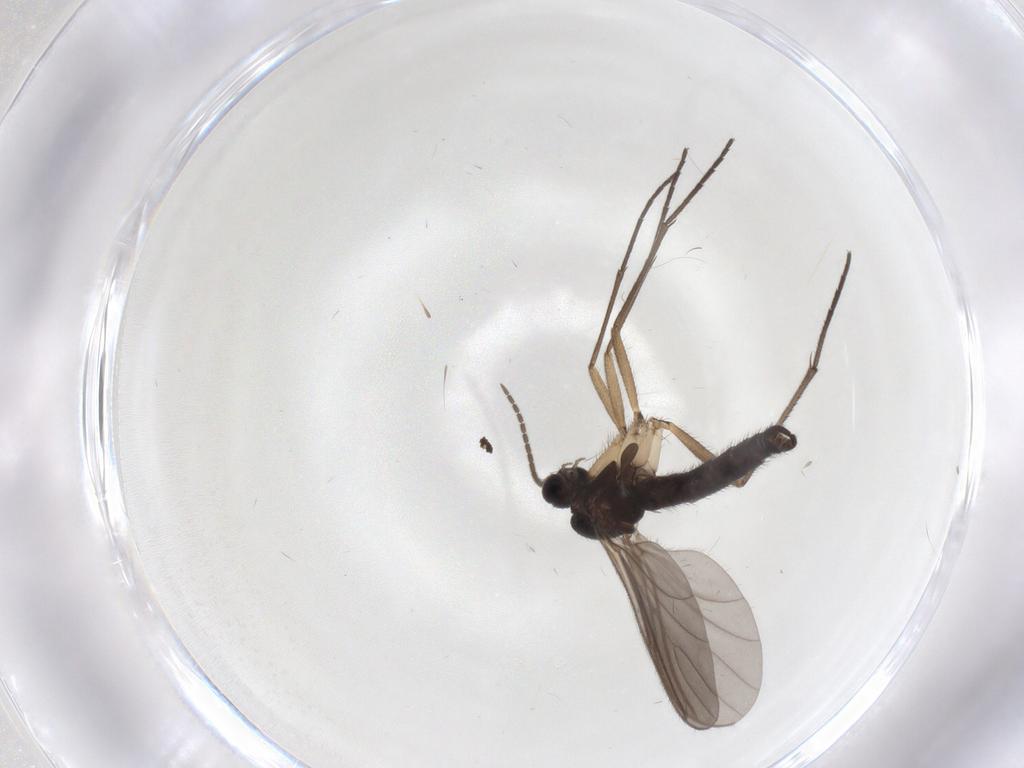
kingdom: Animalia
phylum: Arthropoda
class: Insecta
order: Diptera
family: Sciaridae
